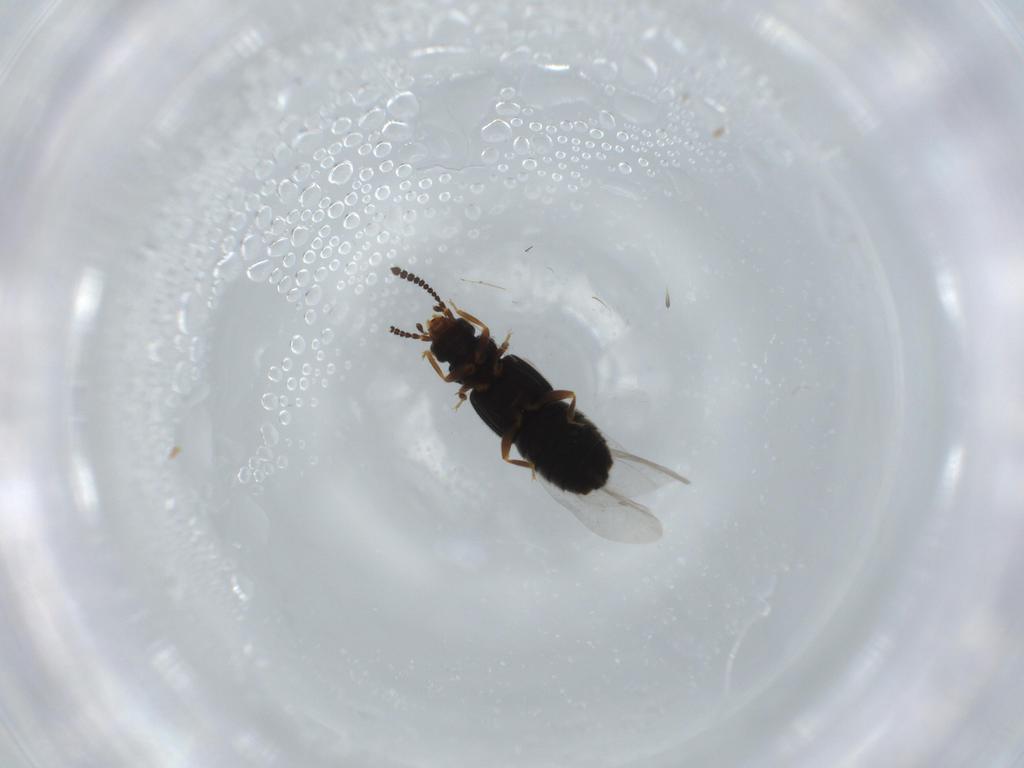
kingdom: Animalia
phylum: Arthropoda
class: Insecta
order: Coleoptera
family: Staphylinidae
